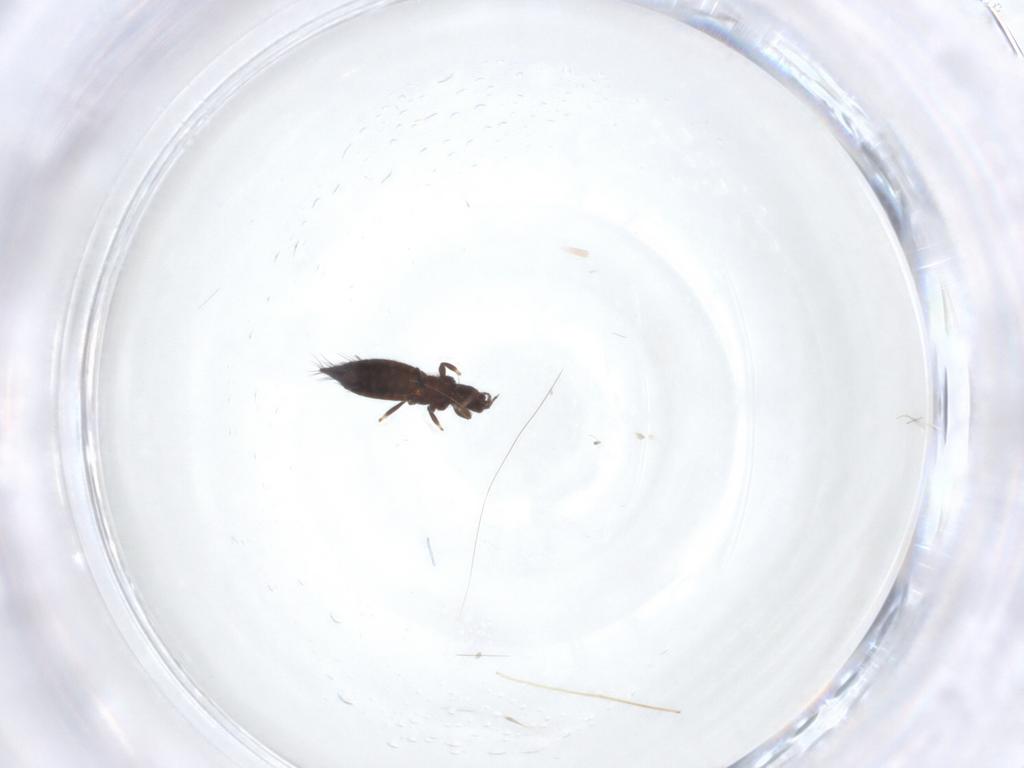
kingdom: Animalia
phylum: Arthropoda
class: Insecta
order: Thysanoptera
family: Thripidae
